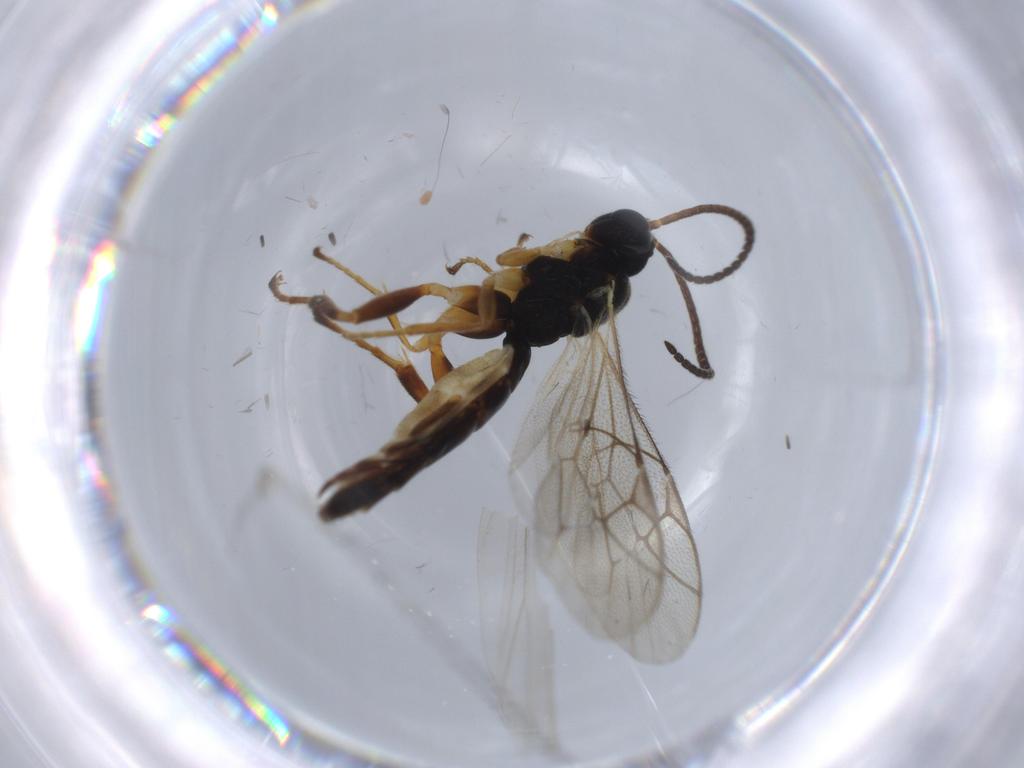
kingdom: Animalia
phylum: Arthropoda
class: Insecta
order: Hymenoptera
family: Ichneumonidae
